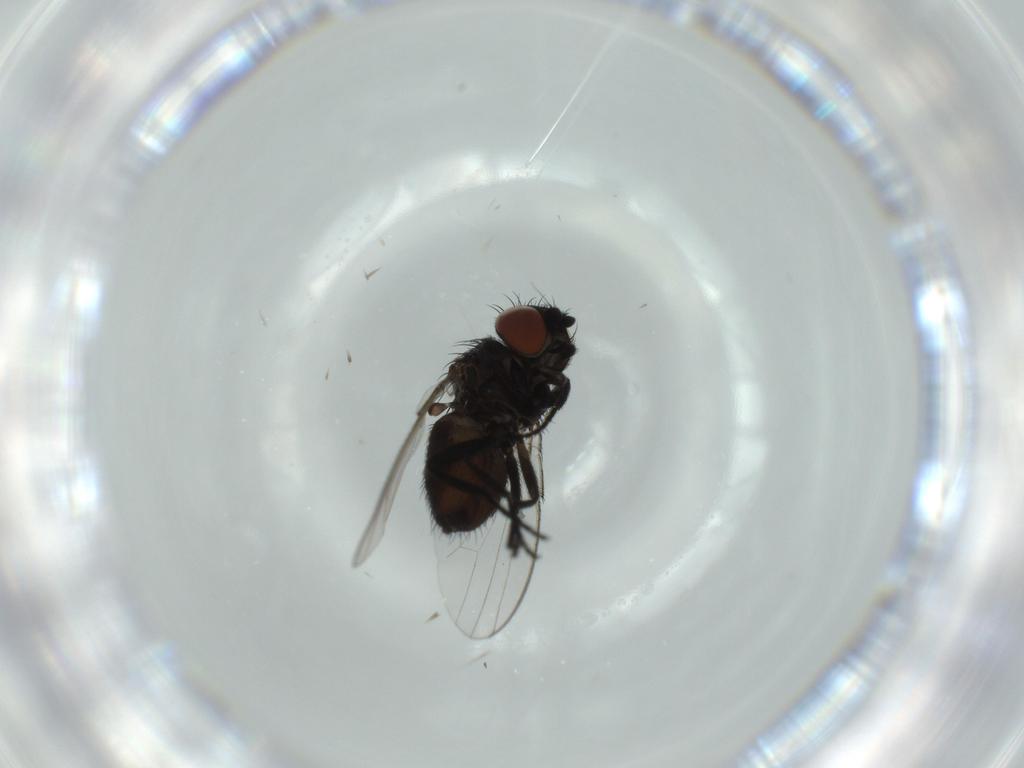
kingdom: Animalia
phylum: Arthropoda
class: Insecta
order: Diptera
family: Milichiidae
